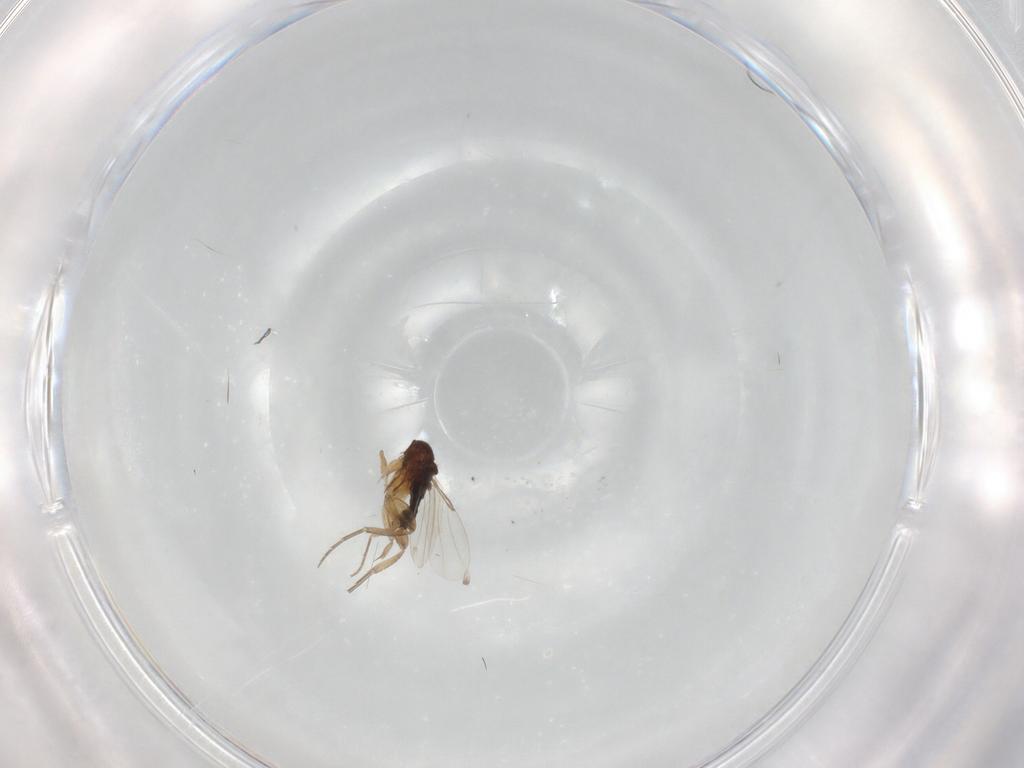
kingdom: Animalia
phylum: Arthropoda
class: Insecta
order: Diptera
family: Phoridae
